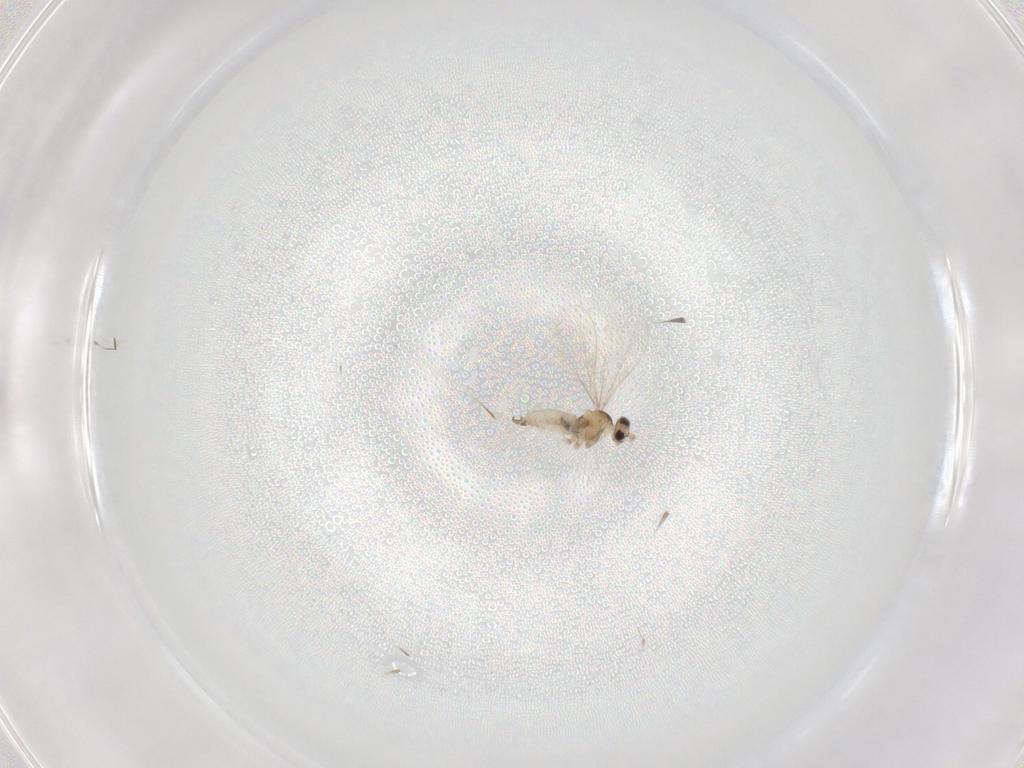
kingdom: Animalia
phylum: Arthropoda
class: Insecta
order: Diptera
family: Cecidomyiidae
